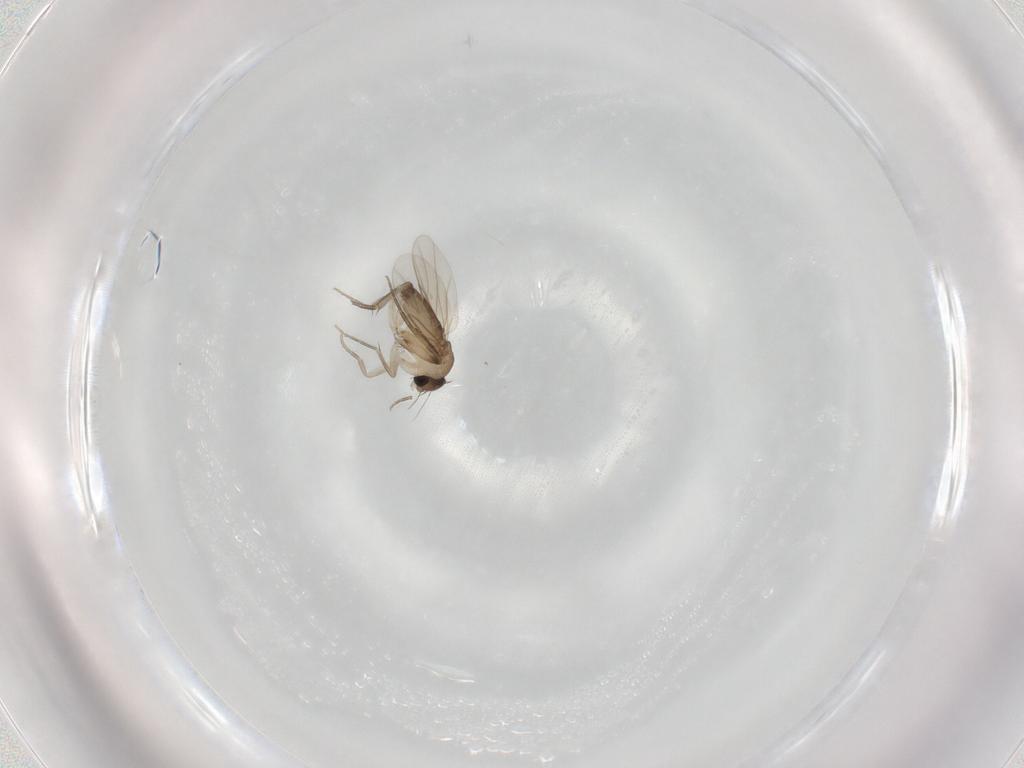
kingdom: Animalia
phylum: Arthropoda
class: Insecta
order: Diptera
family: Phoridae
